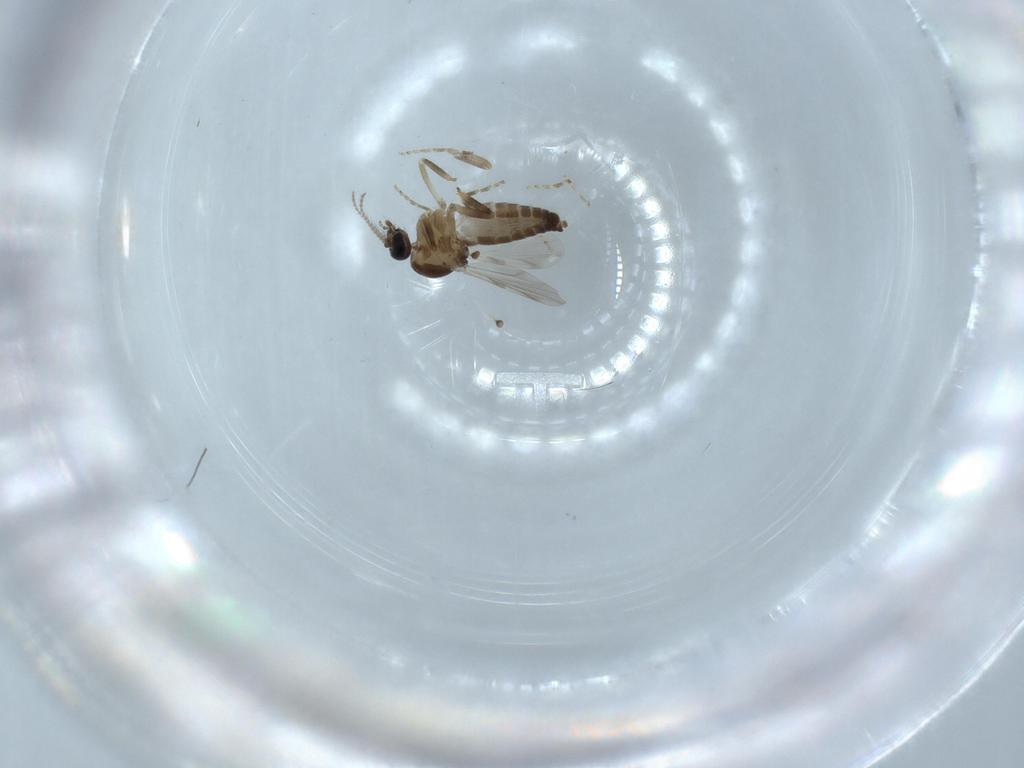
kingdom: Animalia
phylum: Arthropoda
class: Insecta
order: Diptera
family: Ceratopogonidae
